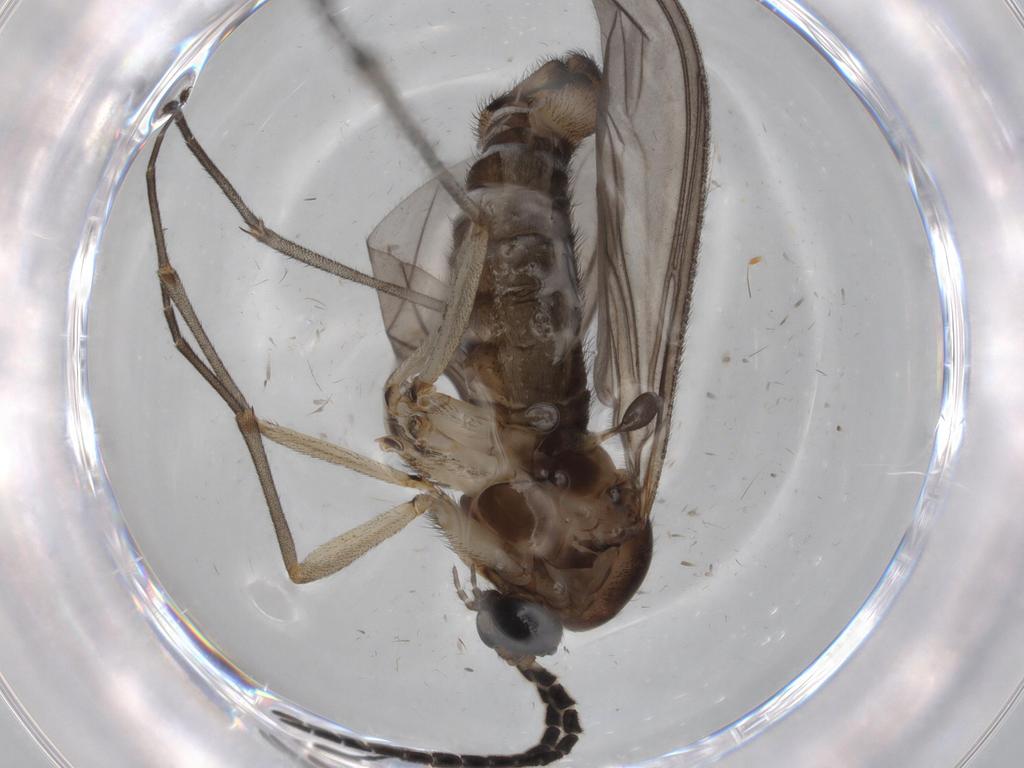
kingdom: Animalia
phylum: Arthropoda
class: Insecta
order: Diptera
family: Sciaridae
